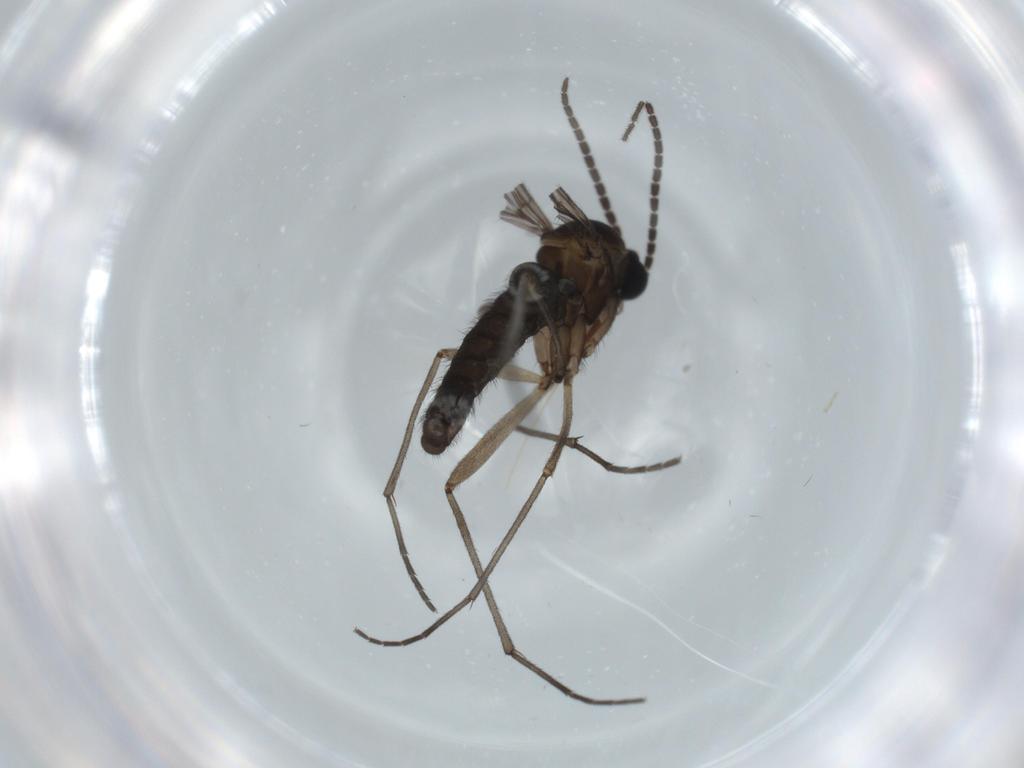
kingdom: Animalia
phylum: Arthropoda
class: Insecta
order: Diptera
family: Sciaridae
